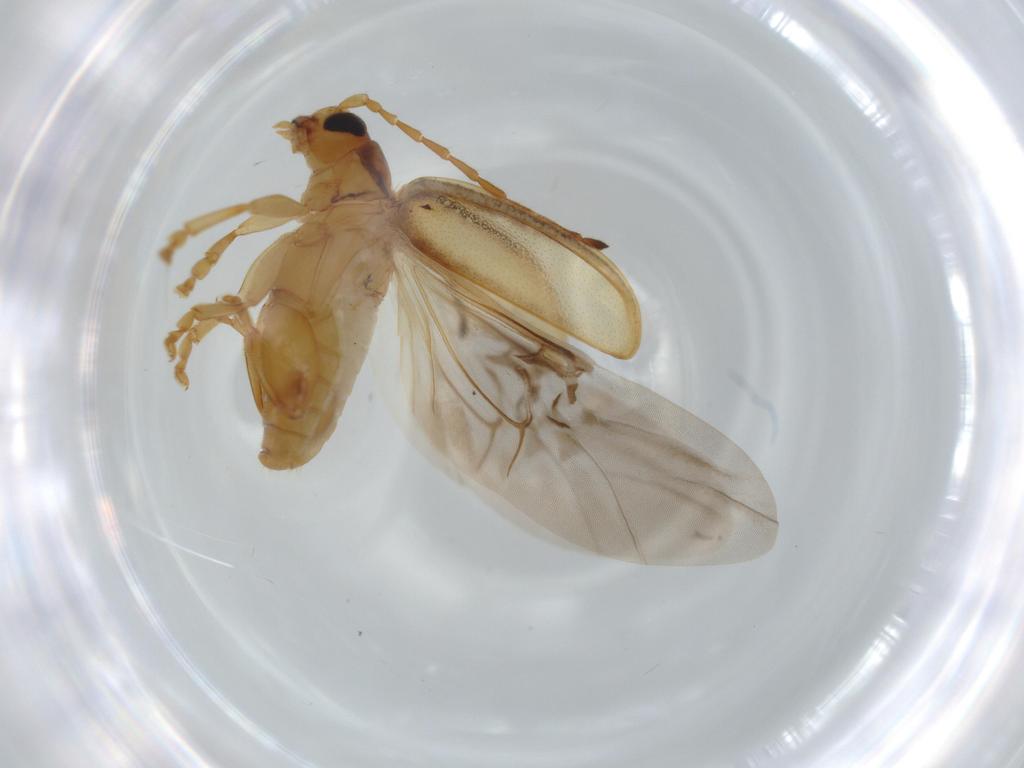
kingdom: Animalia
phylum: Arthropoda
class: Insecta
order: Coleoptera
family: Chrysomelidae
